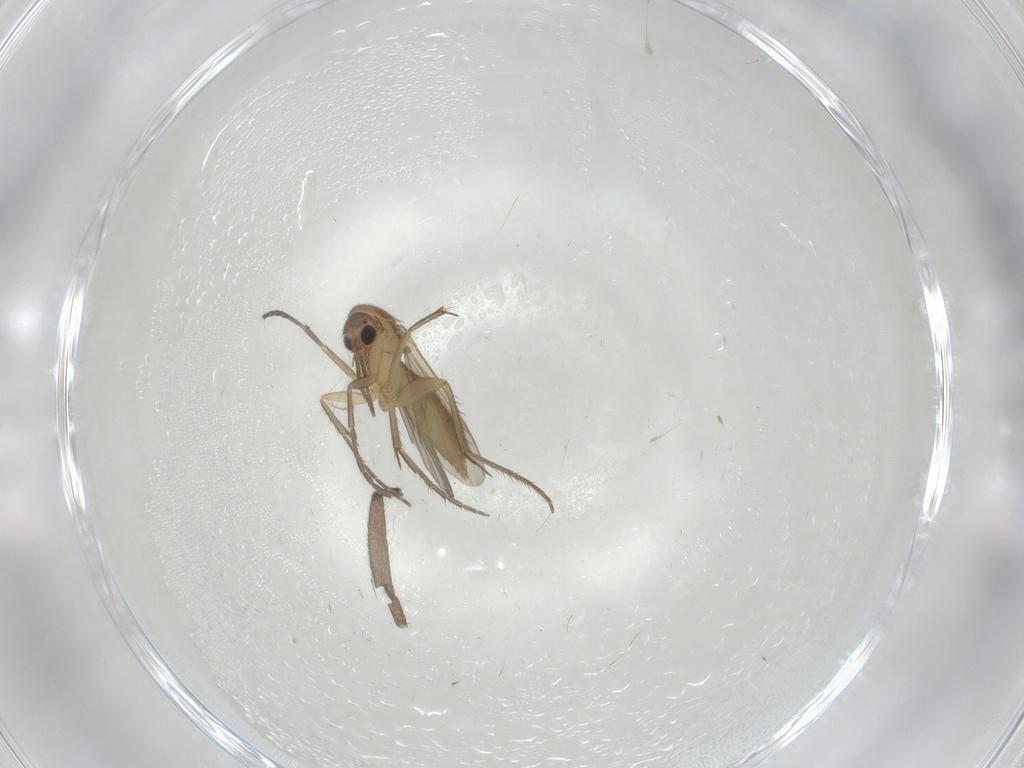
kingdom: Animalia
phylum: Arthropoda
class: Insecta
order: Diptera
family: Mycetophilidae
